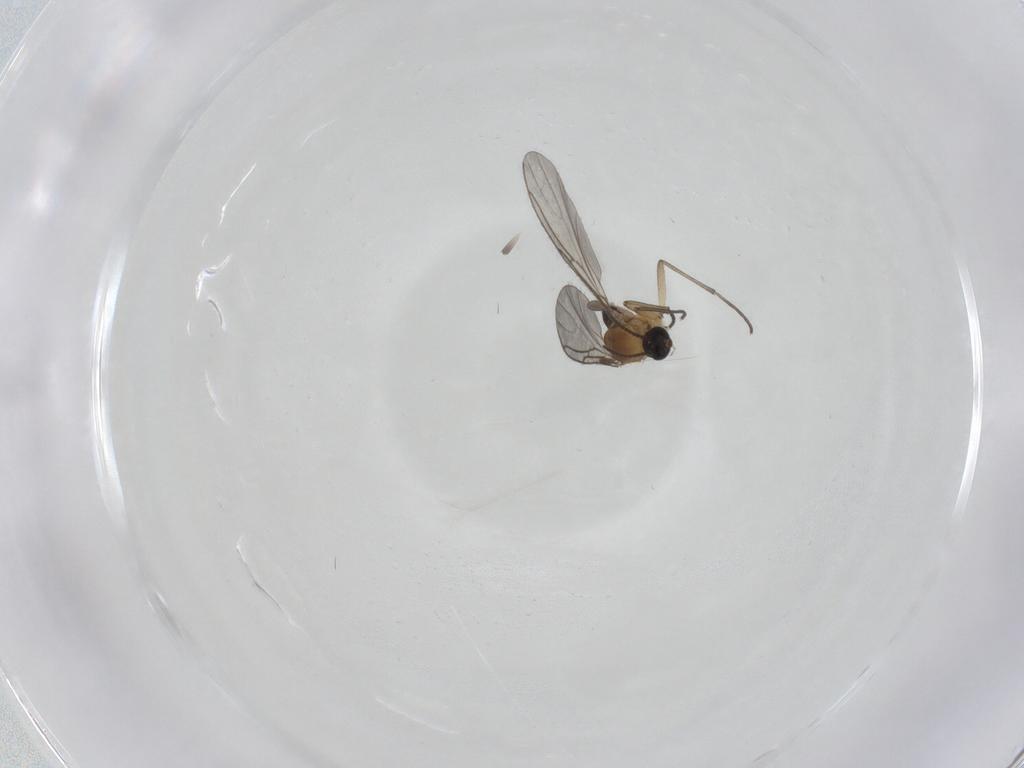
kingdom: Animalia
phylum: Arthropoda
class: Insecta
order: Diptera
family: Sciaridae
